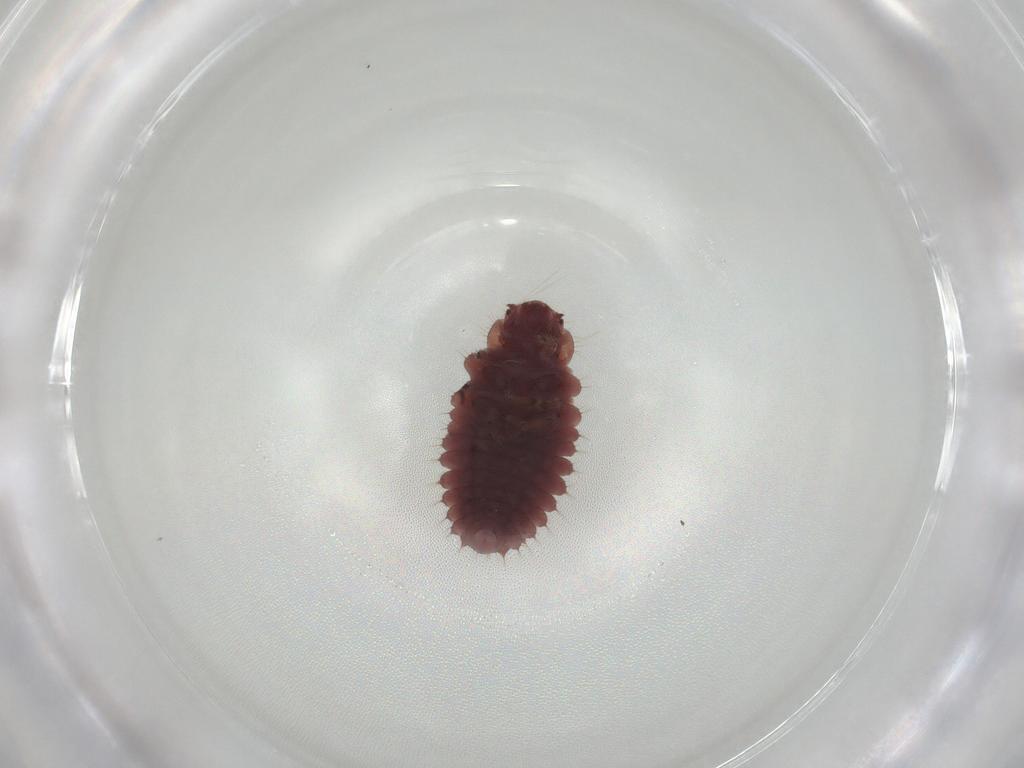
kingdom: Animalia
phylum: Arthropoda
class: Insecta
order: Coleoptera
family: Coccinellidae
